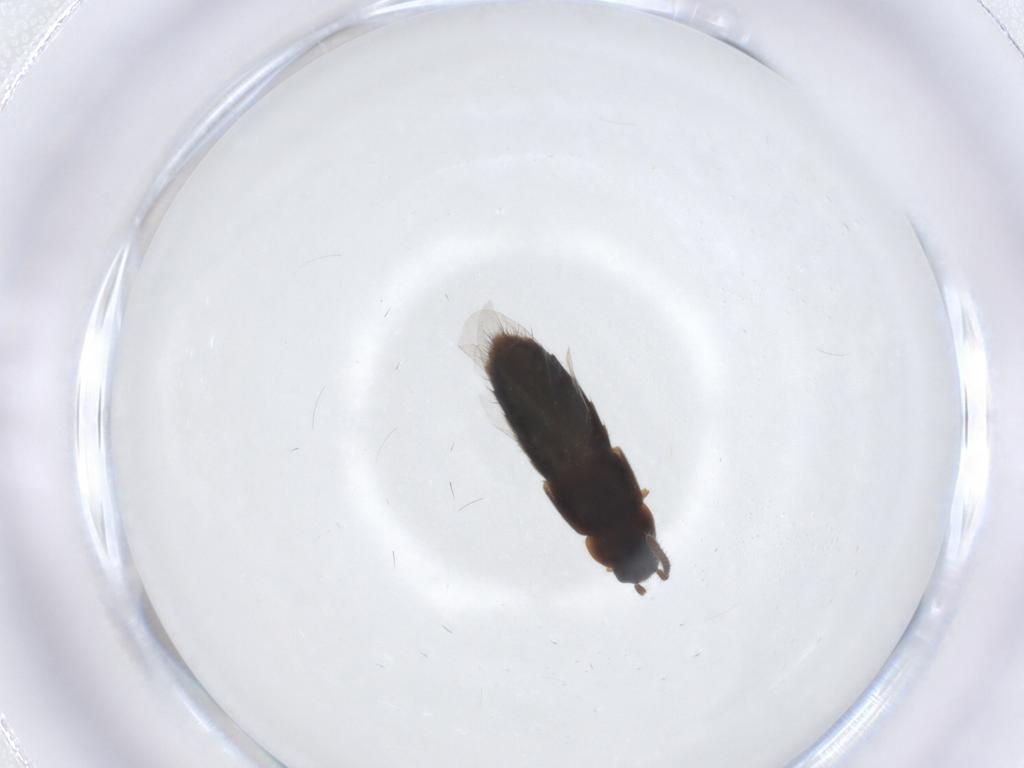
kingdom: Animalia
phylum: Arthropoda
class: Insecta
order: Coleoptera
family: Staphylinidae
